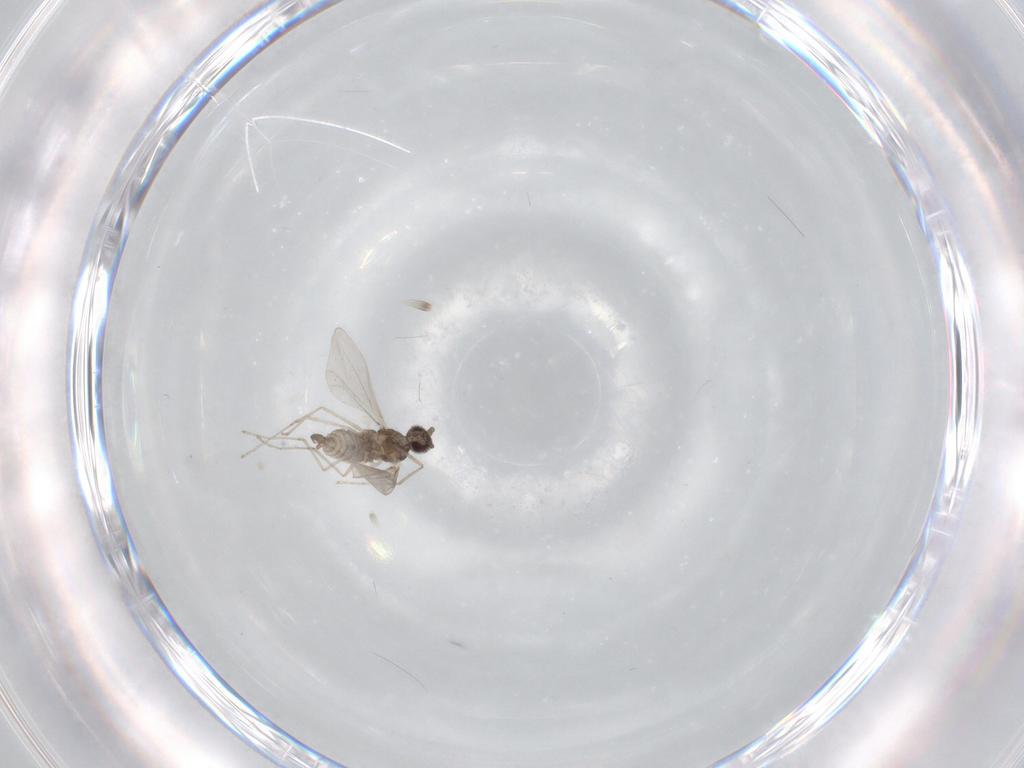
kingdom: Animalia
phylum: Arthropoda
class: Insecta
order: Diptera
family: Cecidomyiidae
